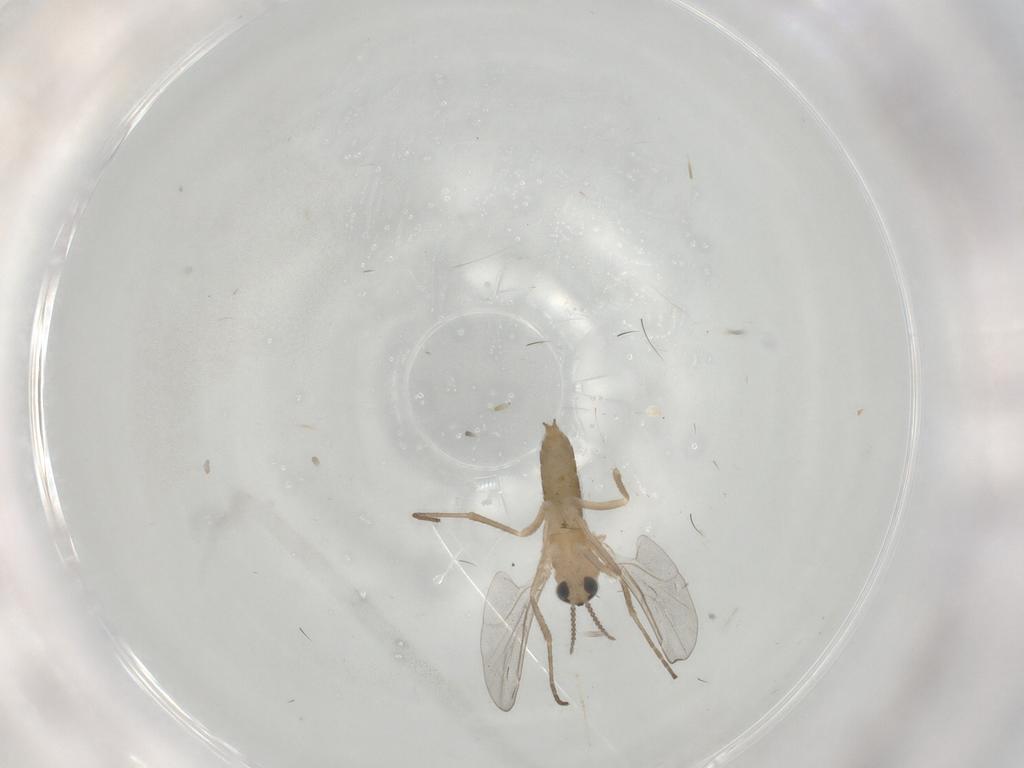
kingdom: Animalia
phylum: Arthropoda
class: Insecta
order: Diptera
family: Cecidomyiidae
